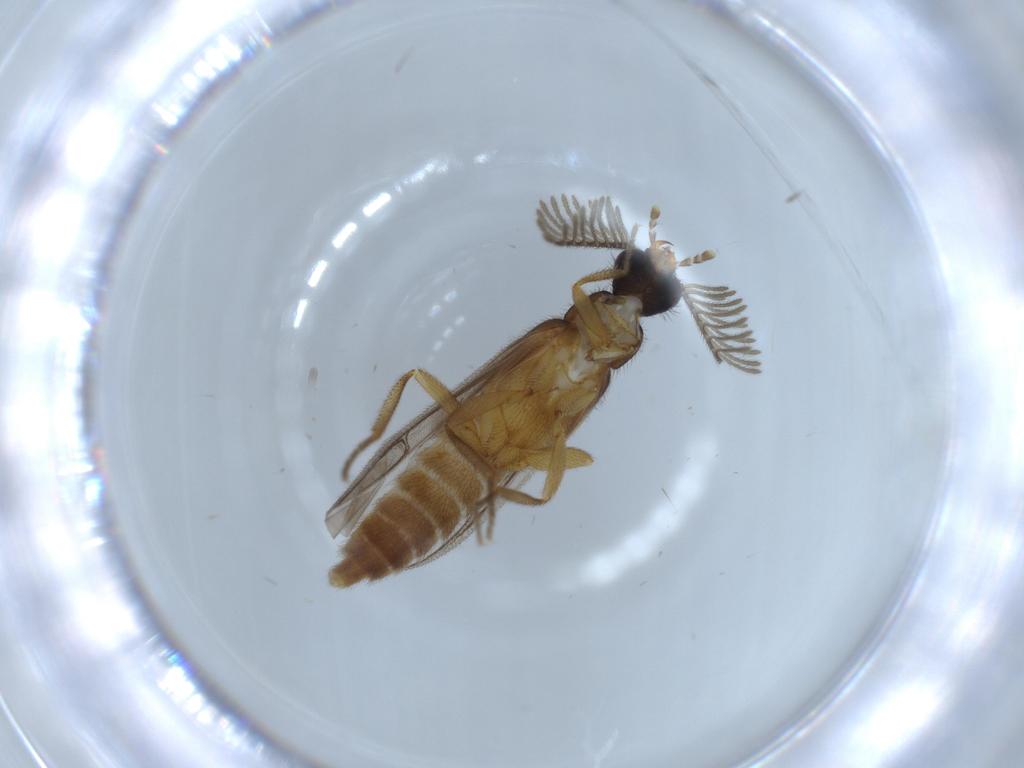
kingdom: Animalia
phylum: Arthropoda
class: Insecta
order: Coleoptera
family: Mordellidae
